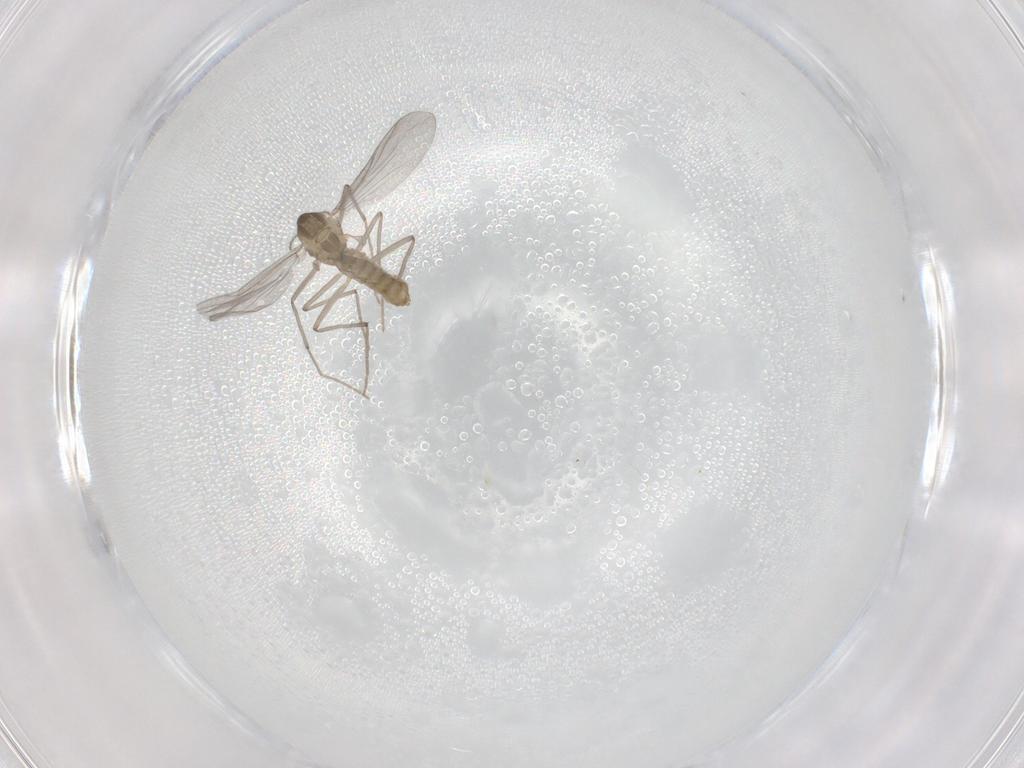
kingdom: Animalia
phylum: Arthropoda
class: Insecta
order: Diptera
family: Chironomidae
